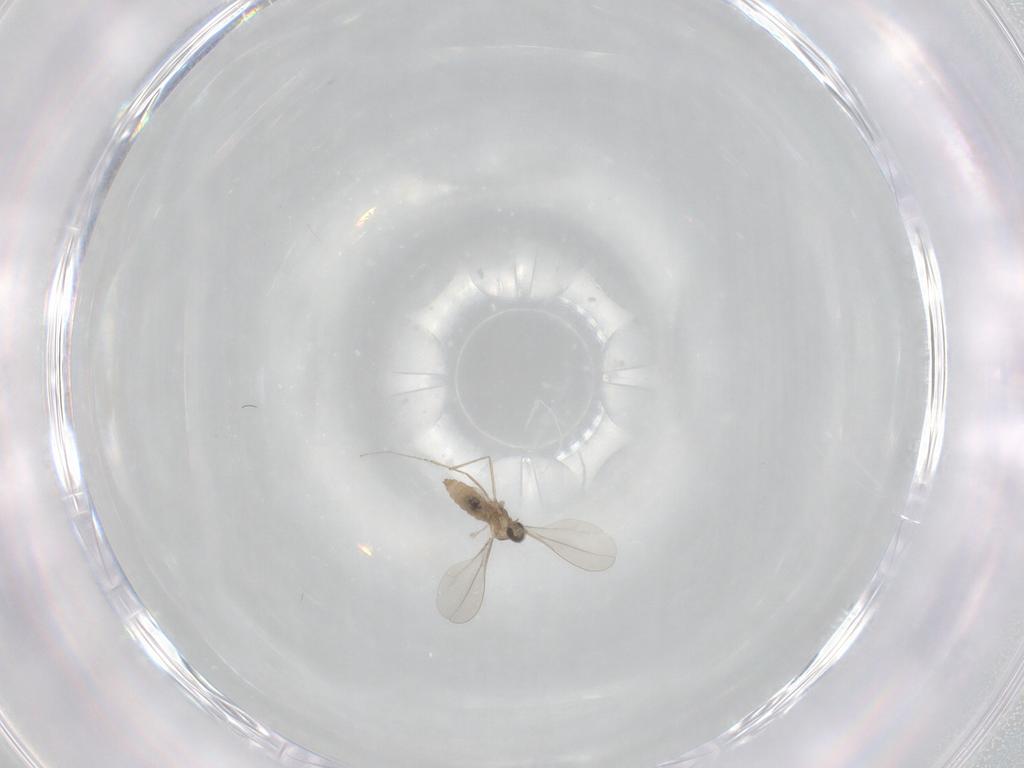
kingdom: Animalia
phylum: Arthropoda
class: Insecta
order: Diptera
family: Cecidomyiidae
